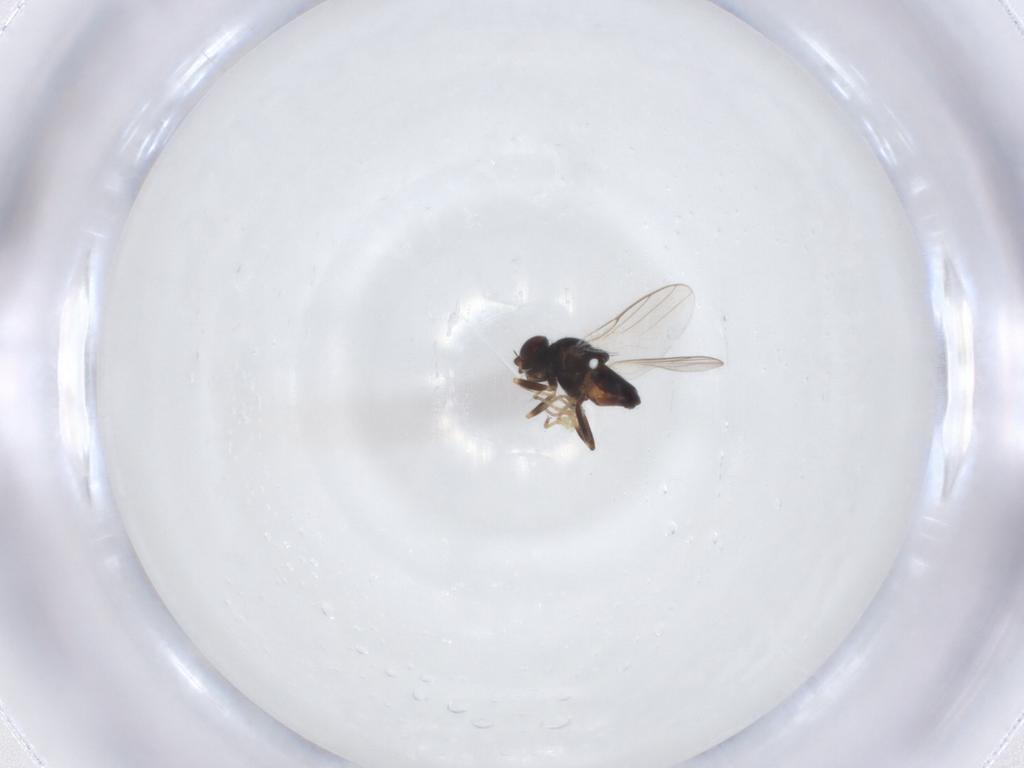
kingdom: Animalia
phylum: Arthropoda
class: Insecta
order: Diptera
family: Chloropidae
